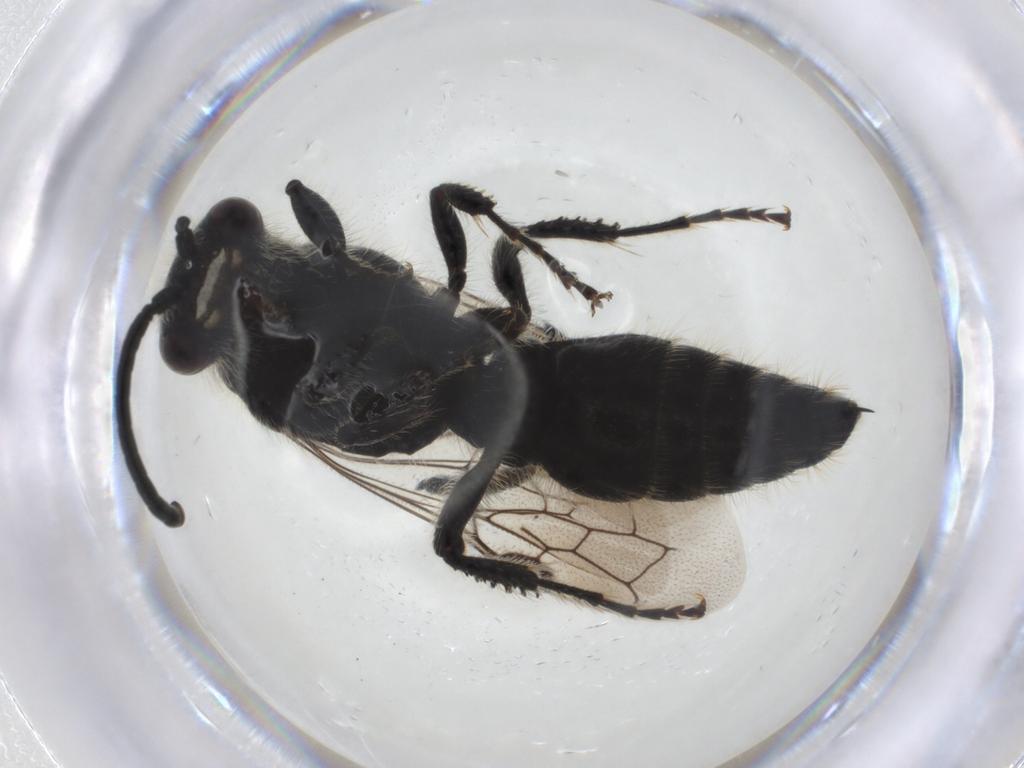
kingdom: Animalia
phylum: Arthropoda
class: Insecta
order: Hymenoptera
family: Tiphiidae
